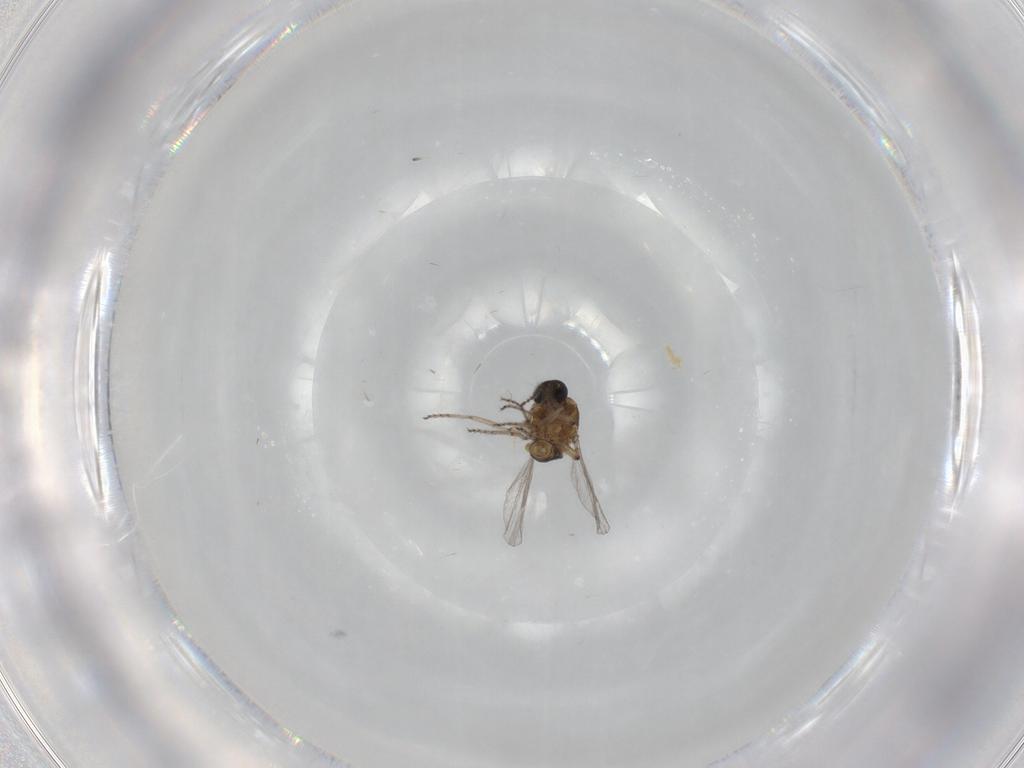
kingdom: Animalia
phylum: Arthropoda
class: Insecta
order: Diptera
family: Ceratopogonidae
